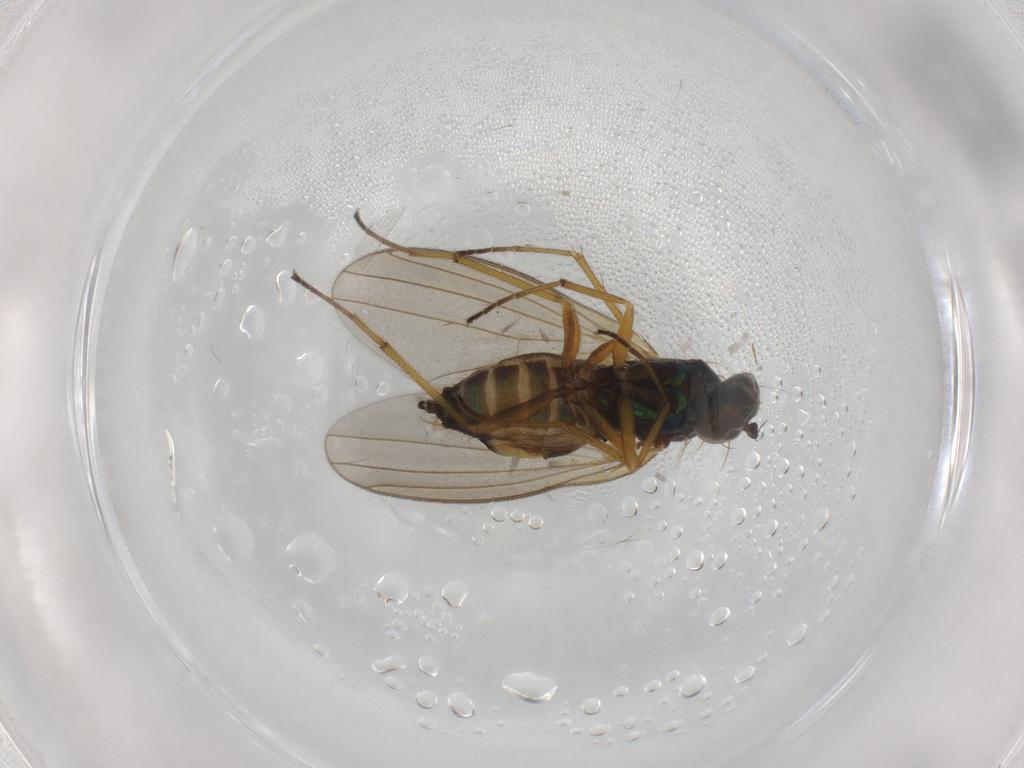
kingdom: Animalia
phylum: Arthropoda
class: Insecta
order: Diptera
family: Dolichopodidae
